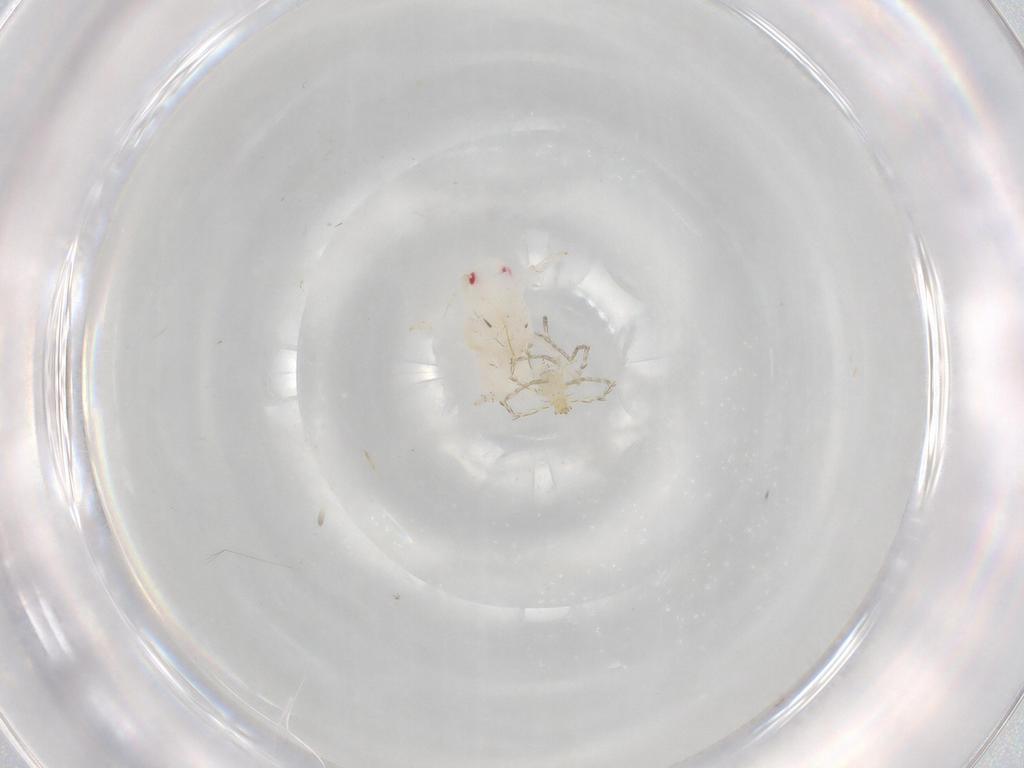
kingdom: Animalia
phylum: Arthropoda
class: Arachnida
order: Trombidiformes
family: Erythraeidae
